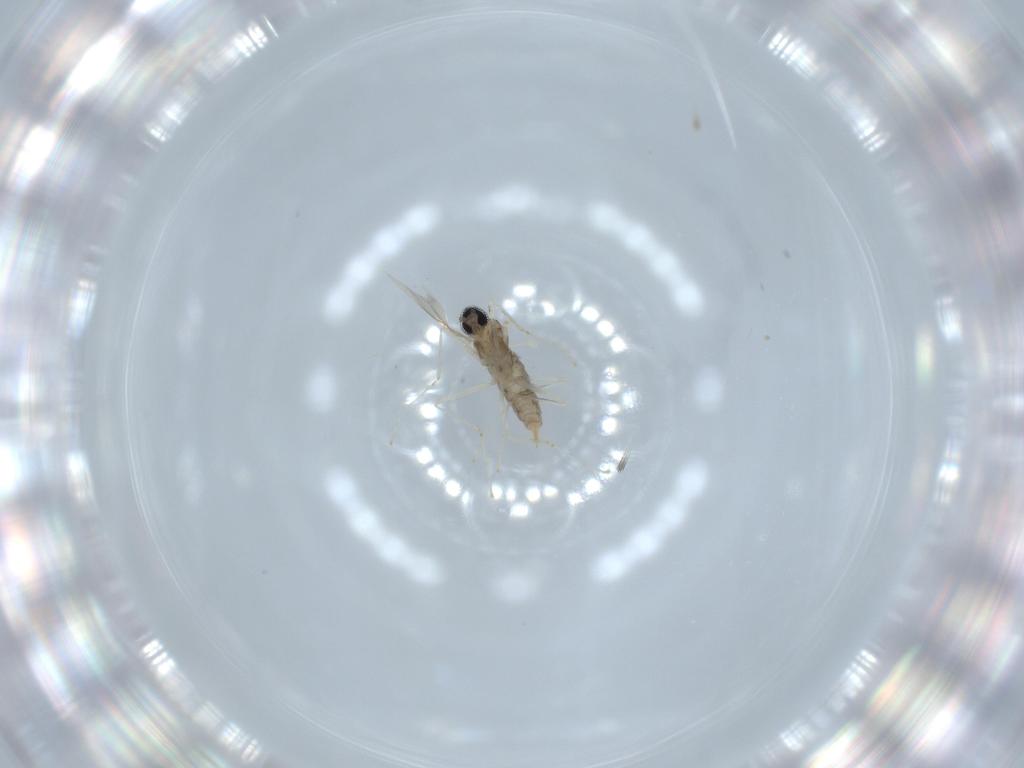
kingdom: Animalia
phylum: Arthropoda
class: Insecta
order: Diptera
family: Cecidomyiidae
